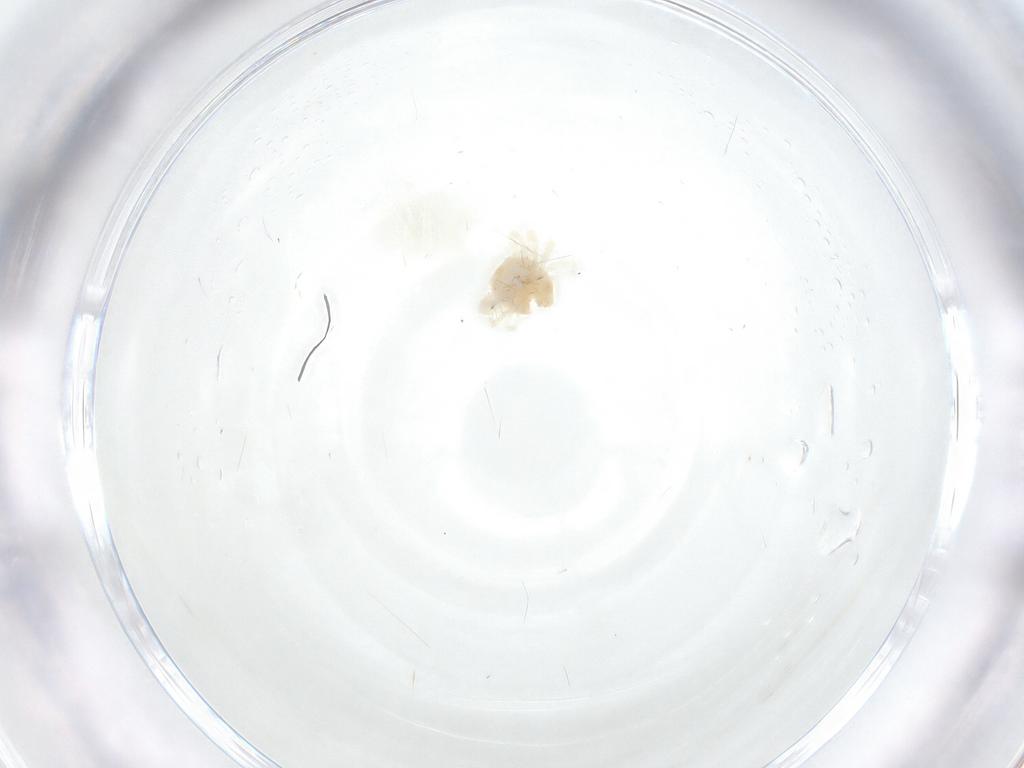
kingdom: Animalia
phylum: Arthropoda
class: Arachnida
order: Trombidiformes
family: Anystidae
